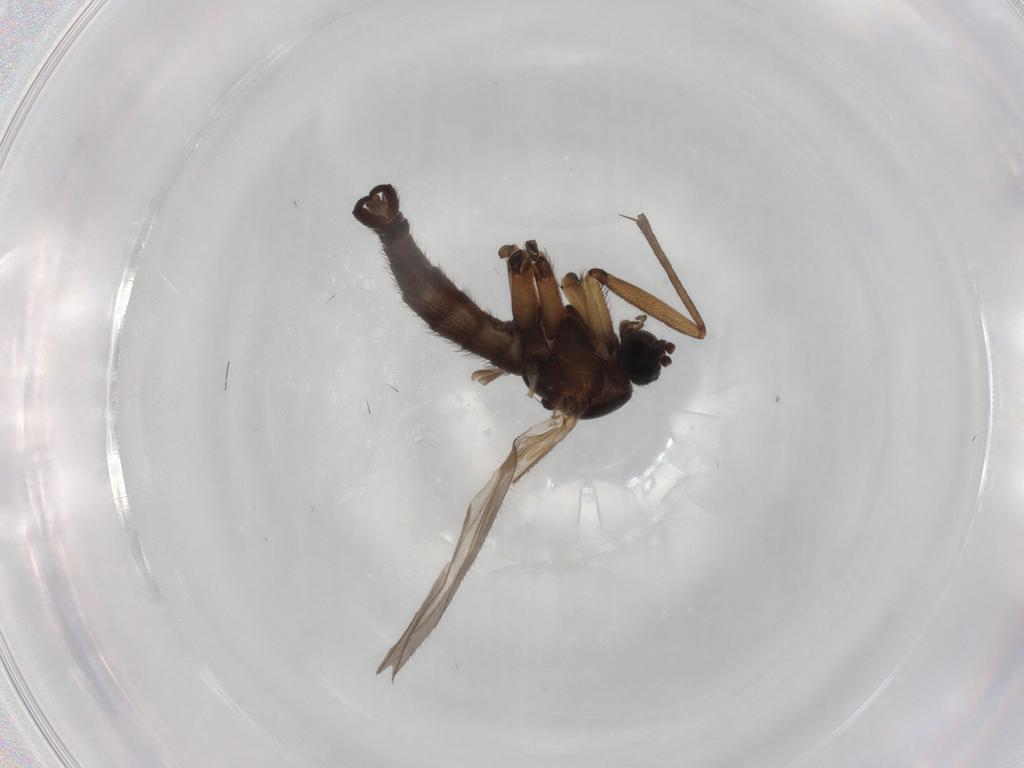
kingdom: Animalia
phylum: Arthropoda
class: Insecta
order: Diptera
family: Sciaridae
